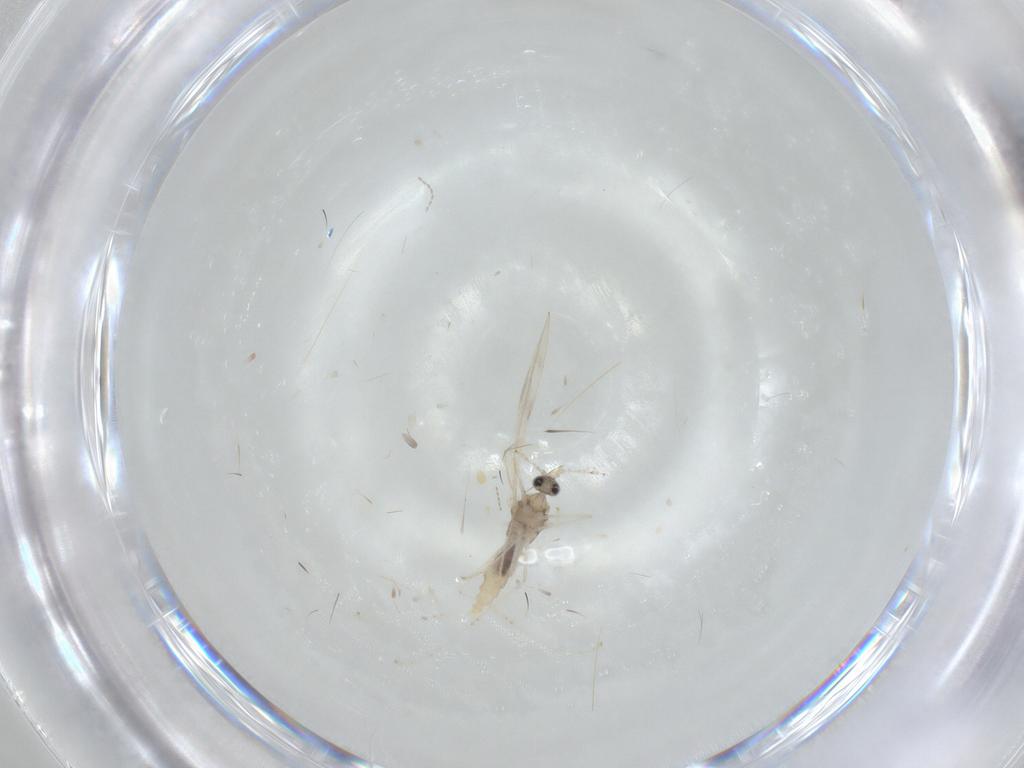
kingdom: Animalia
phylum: Arthropoda
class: Insecta
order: Diptera
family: Cecidomyiidae
